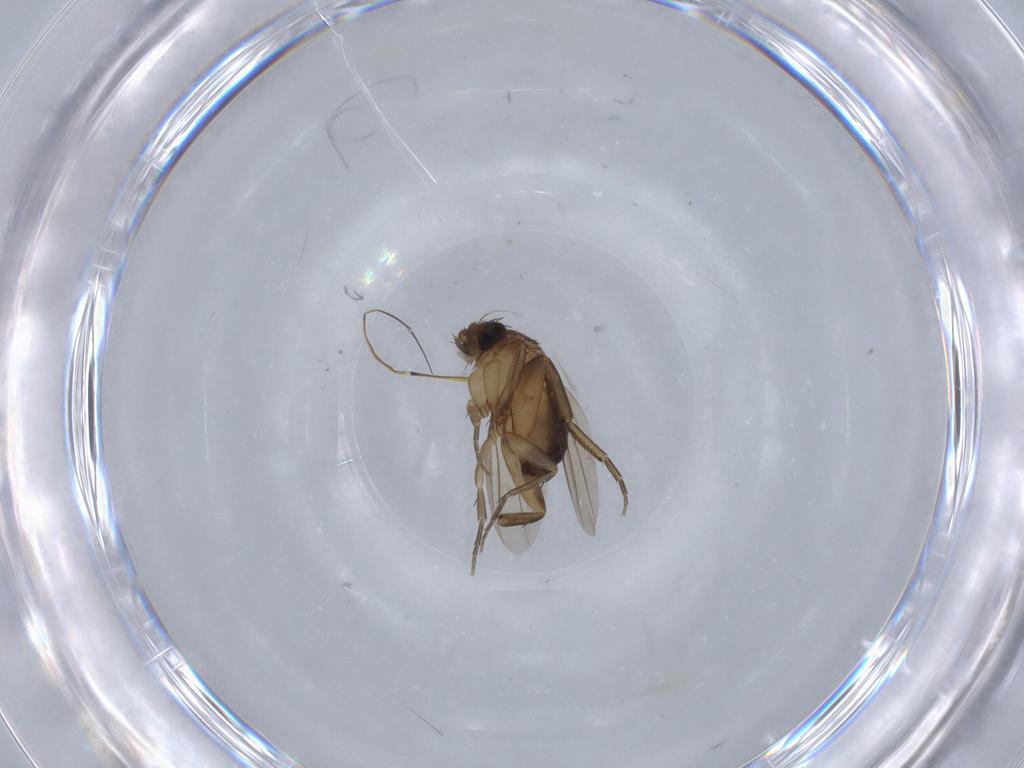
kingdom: Animalia
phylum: Arthropoda
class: Insecta
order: Diptera
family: Phoridae
